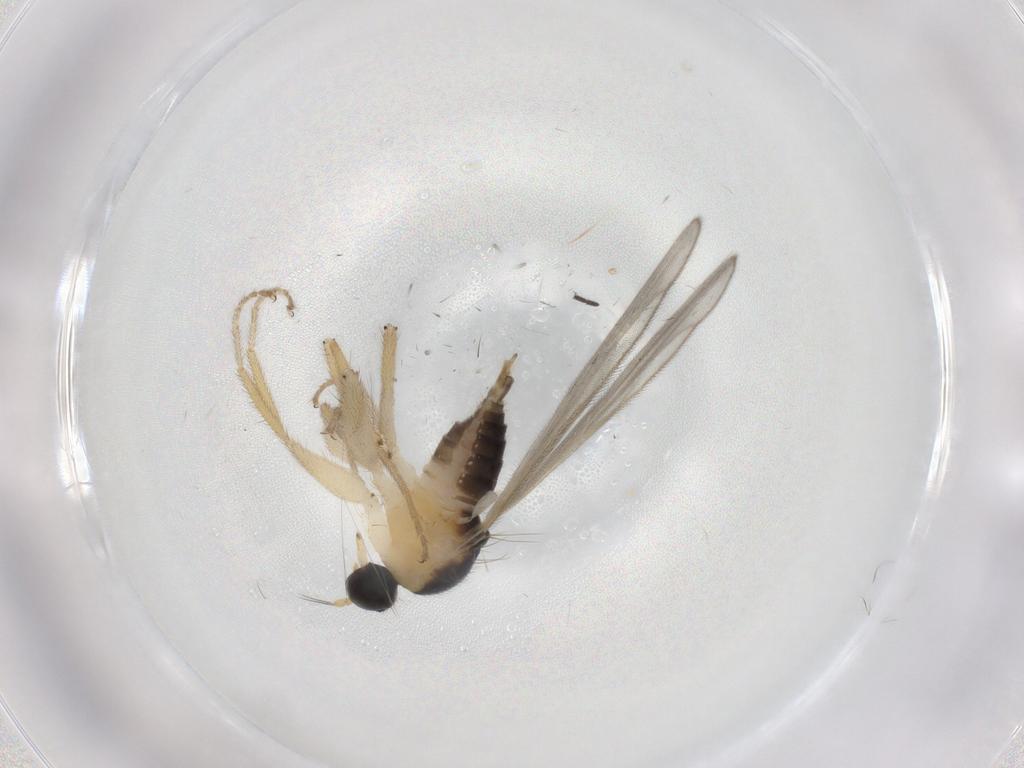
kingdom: Animalia
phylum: Arthropoda
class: Insecta
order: Diptera
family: Hybotidae
